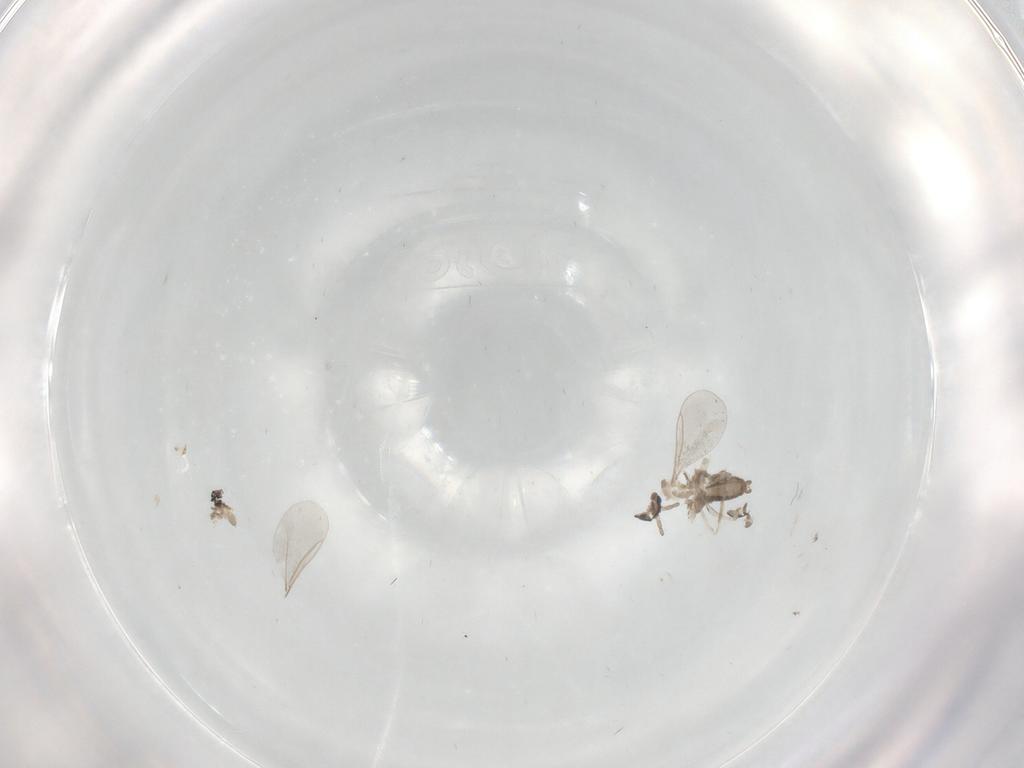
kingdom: Animalia
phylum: Arthropoda
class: Insecta
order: Diptera
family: Cecidomyiidae
